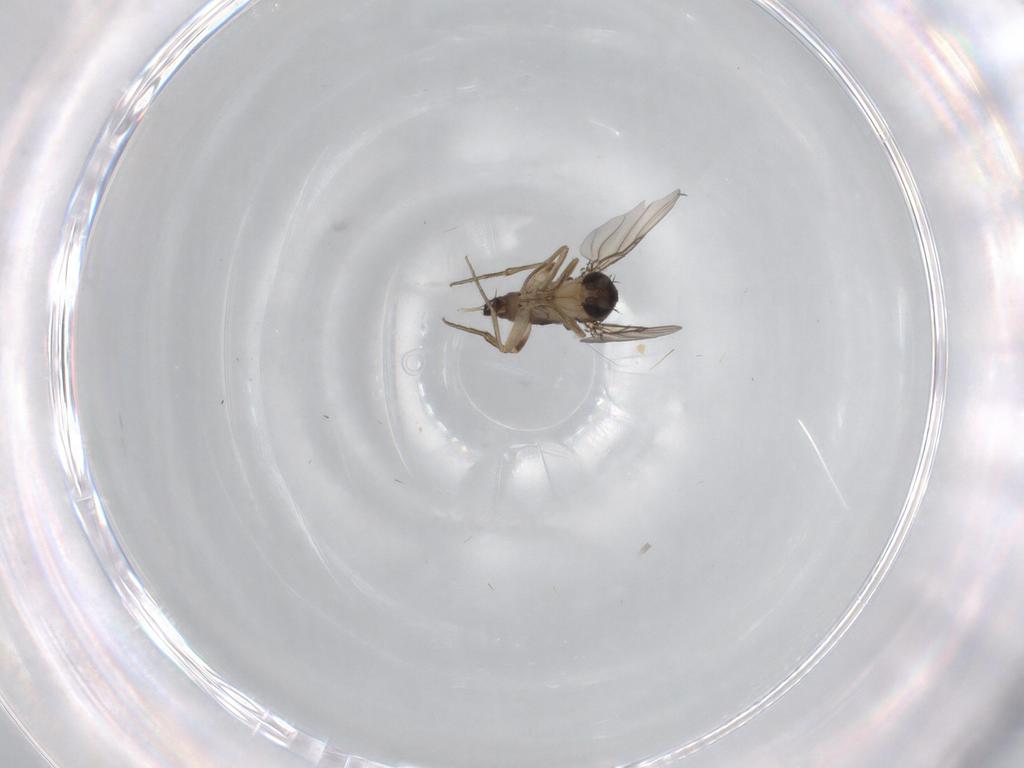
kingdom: Animalia
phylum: Arthropoda
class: Insecta
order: Diptera
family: Phoridae
